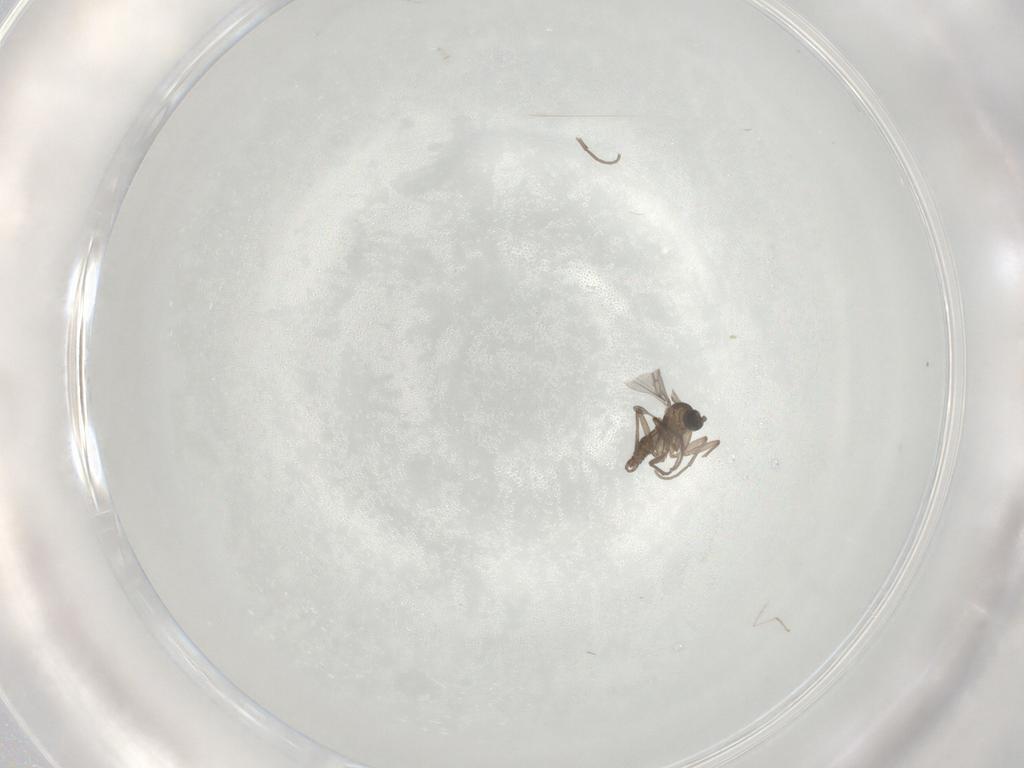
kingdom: Animalia
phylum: Arthropoda
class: Insecta
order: Diptera
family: Sciaridae
